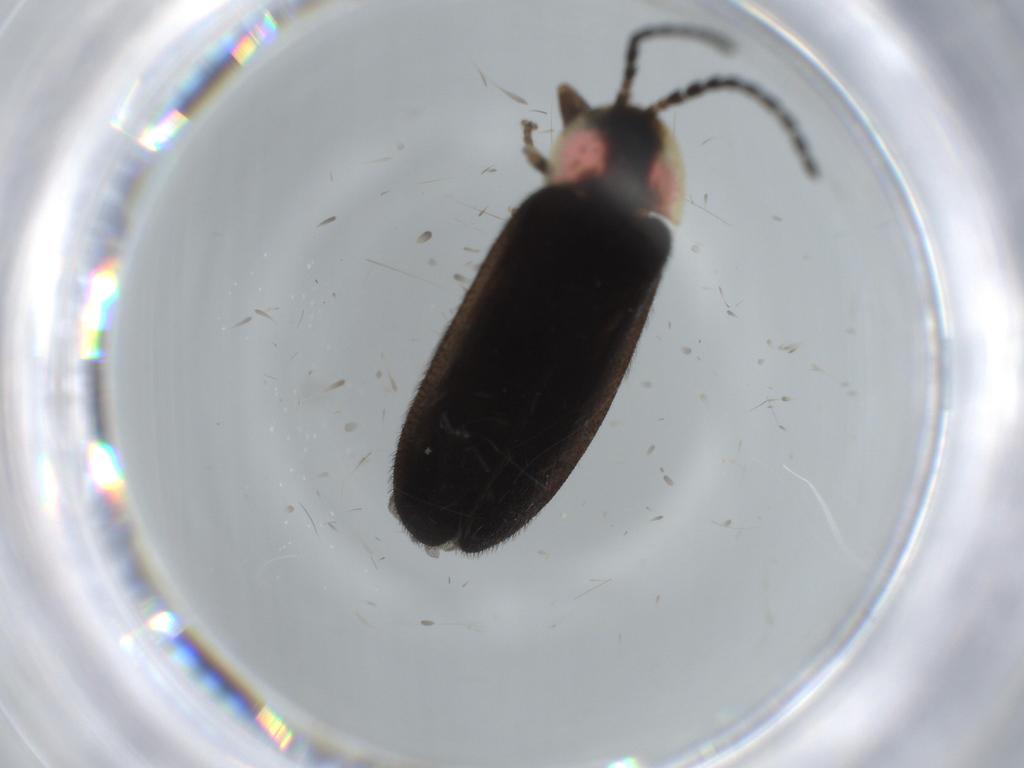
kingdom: Animalia
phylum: Arthropoda
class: Insecta
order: Coleoptera
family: Lampyridae
